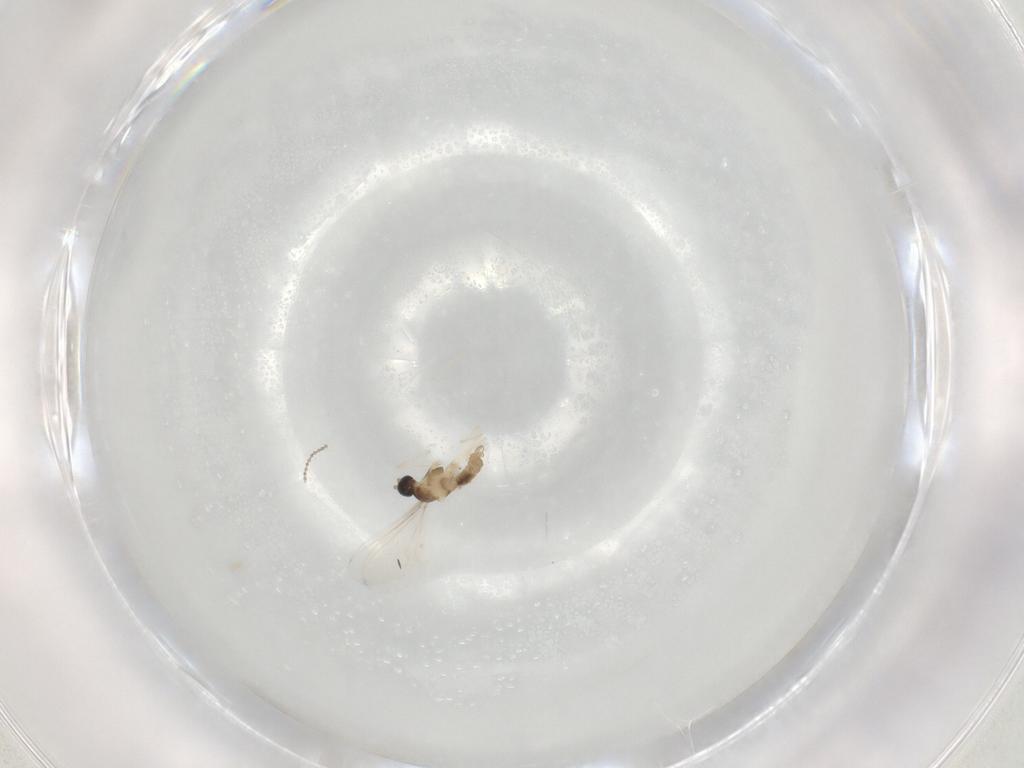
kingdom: Animalia
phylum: Arthropoda
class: Insecta
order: Diptera
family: Cecidomyiidae
